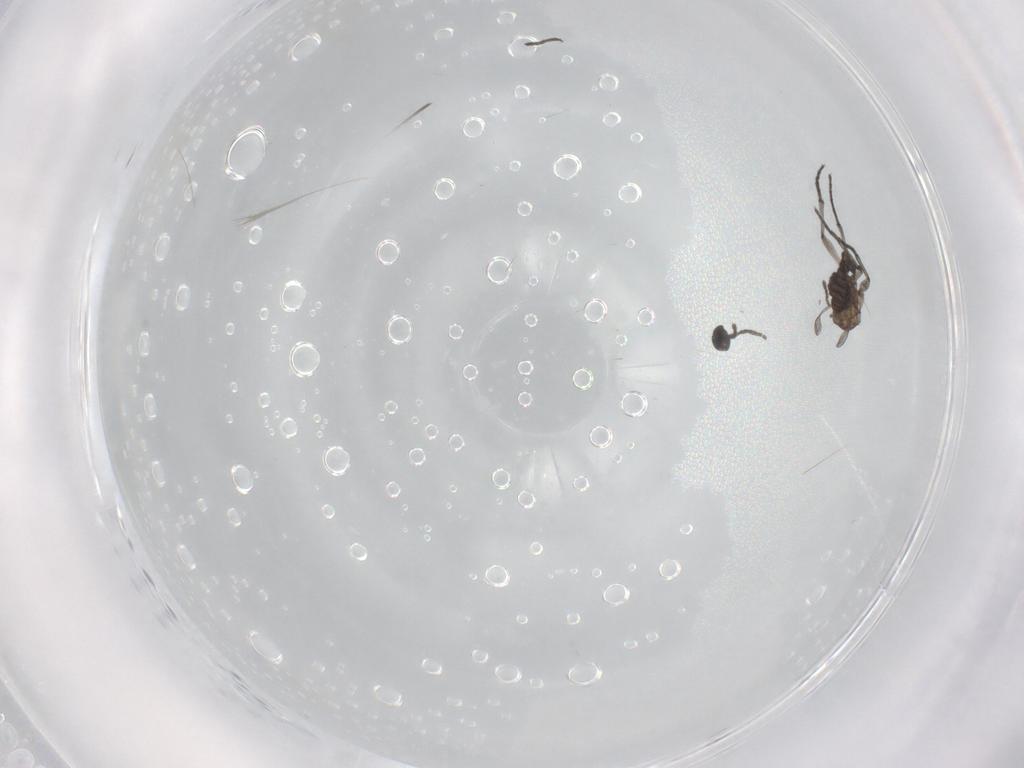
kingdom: Animalia
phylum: Arthropoda
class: Insecta
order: Diptera
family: Sciaridae
